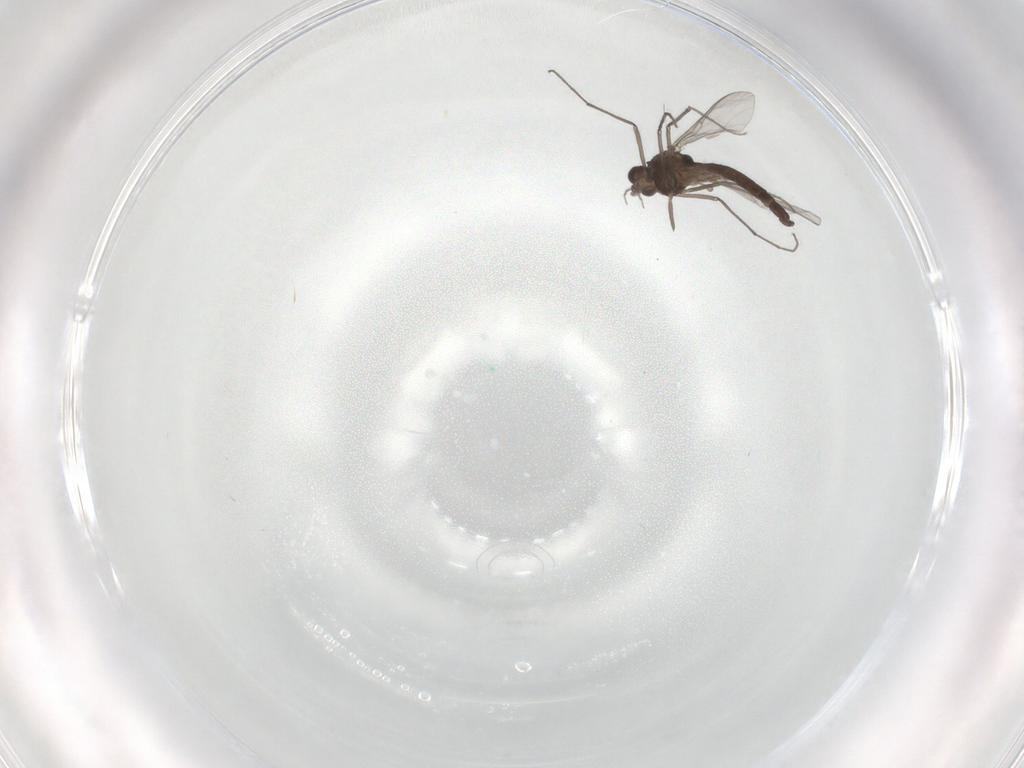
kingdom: Animalia
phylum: Arthropoda
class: Insecta
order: Diptera
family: Chironomidae
